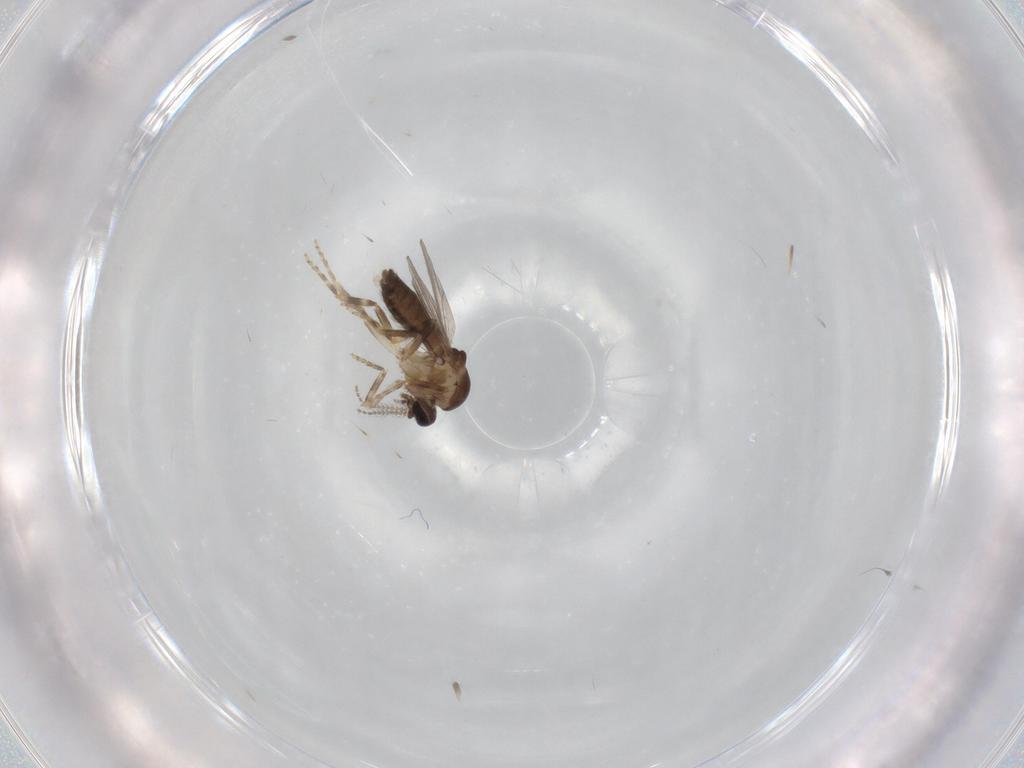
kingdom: Animalia
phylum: Arthropoda
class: Insecta
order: Diptera
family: Ceratopogonidae
